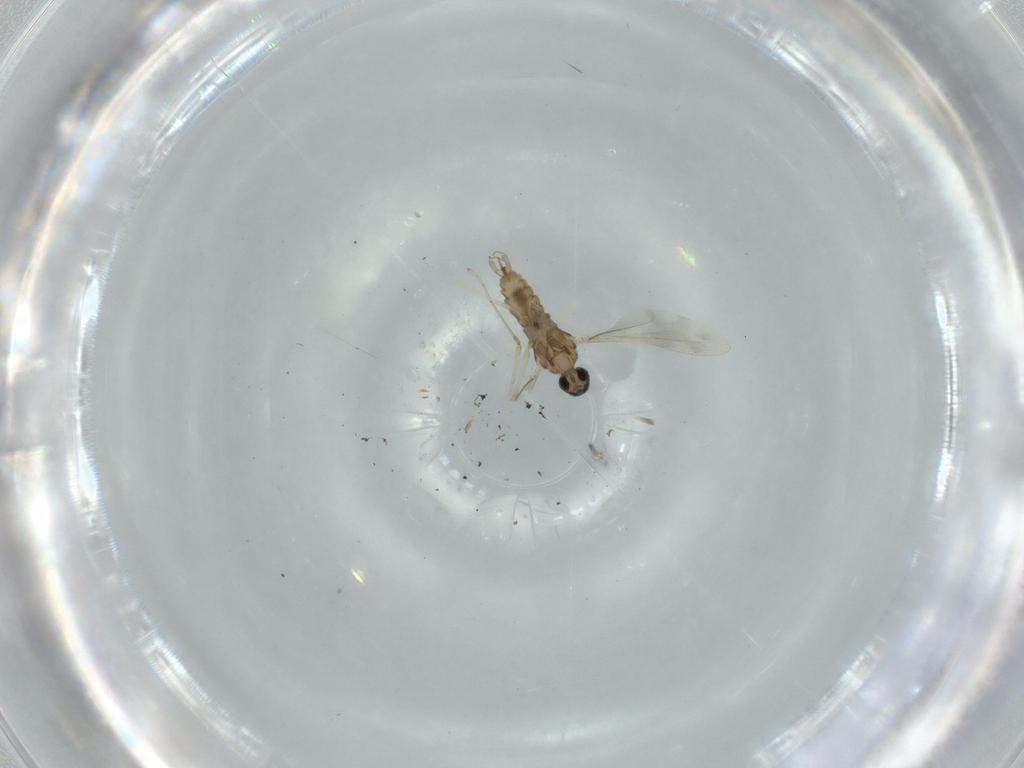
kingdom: Animalia
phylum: Arthropoda
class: Insecta
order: Diptera
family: Cecidomyiidae
